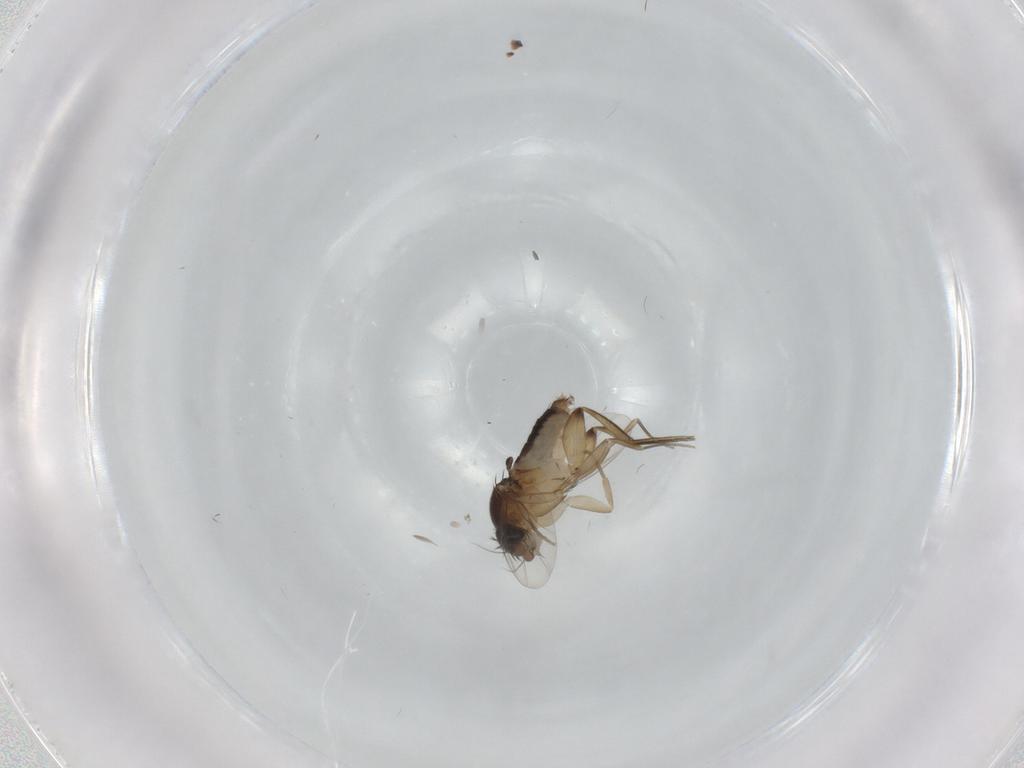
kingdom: Animalia
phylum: Arthropoda
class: Insecta
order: Diptera
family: Phoridae
